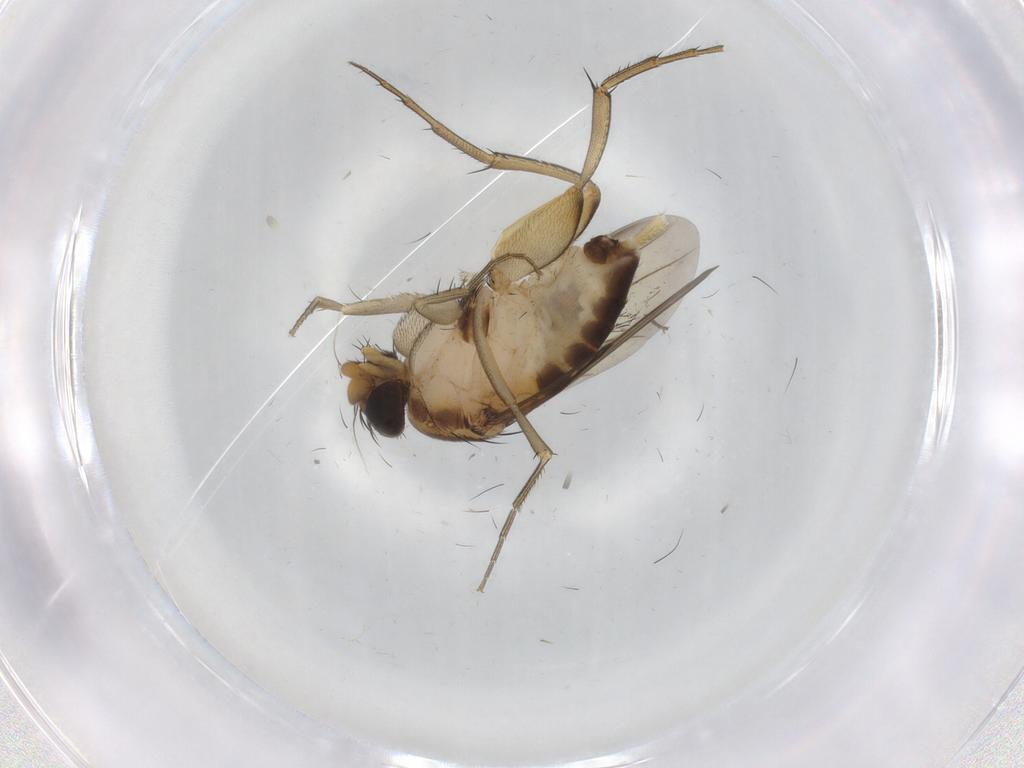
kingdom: Animalia
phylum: Arthropoda
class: Insecta
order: Diptera
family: Phoridae
